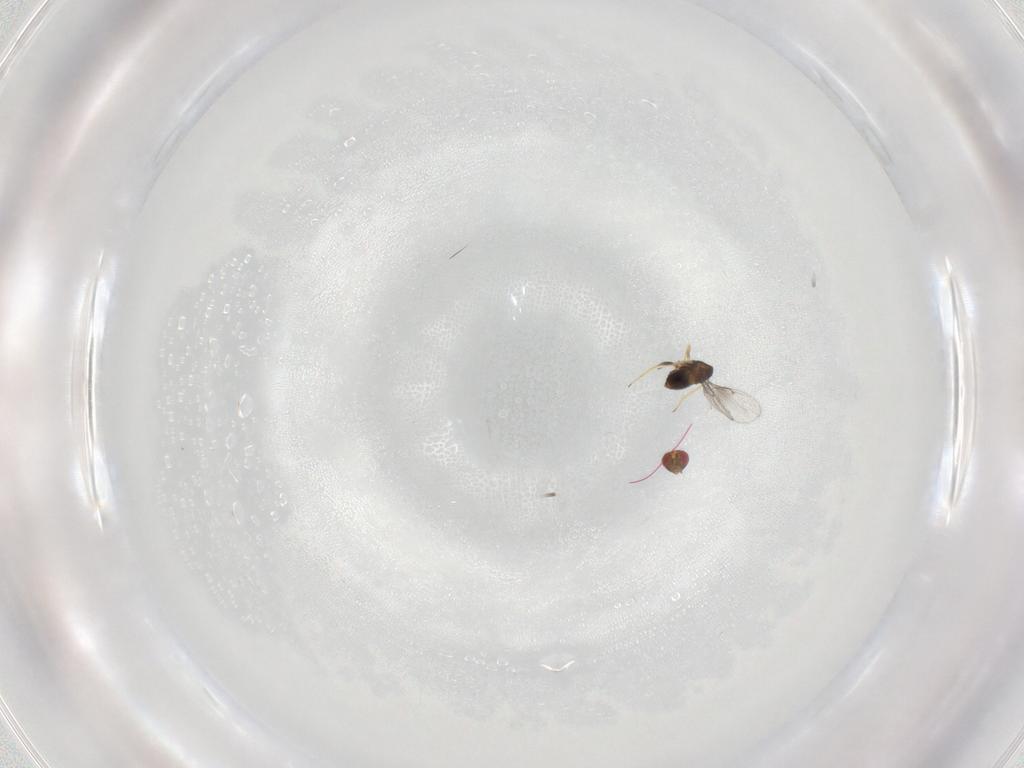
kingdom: Animalia
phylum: Arthropoda
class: Insecta
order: Hymenoptera
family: Trichogrammatidae
